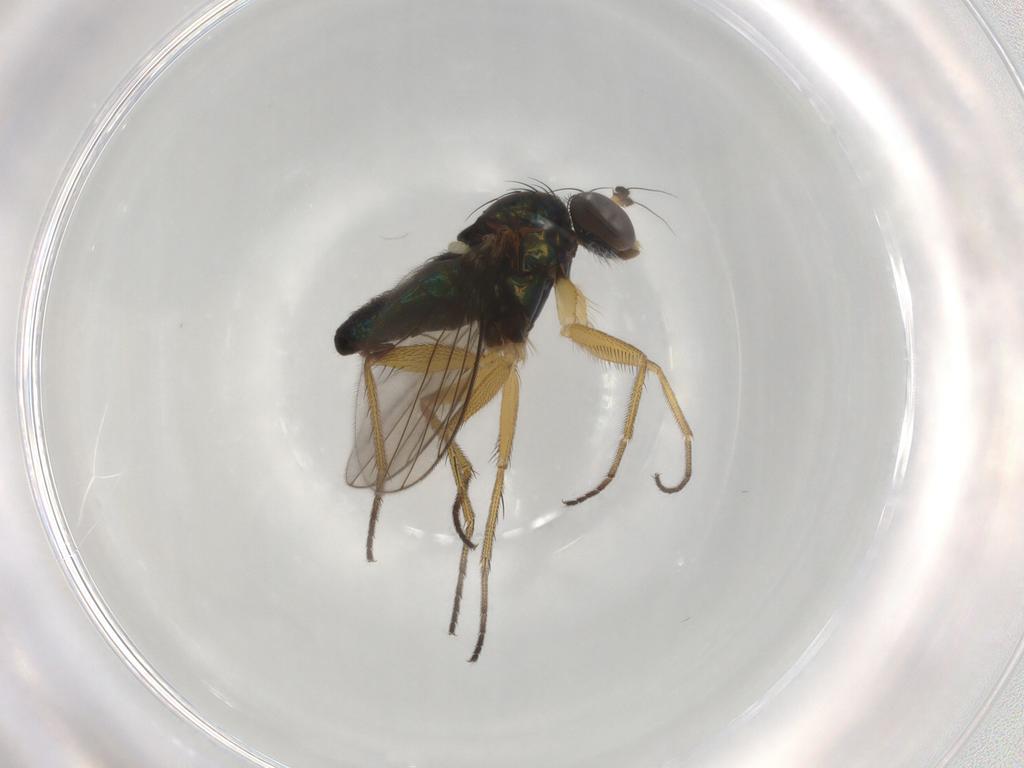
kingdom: Animalia
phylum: Arthropoda
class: Insecta
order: Diptera
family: Dolichopodidae
